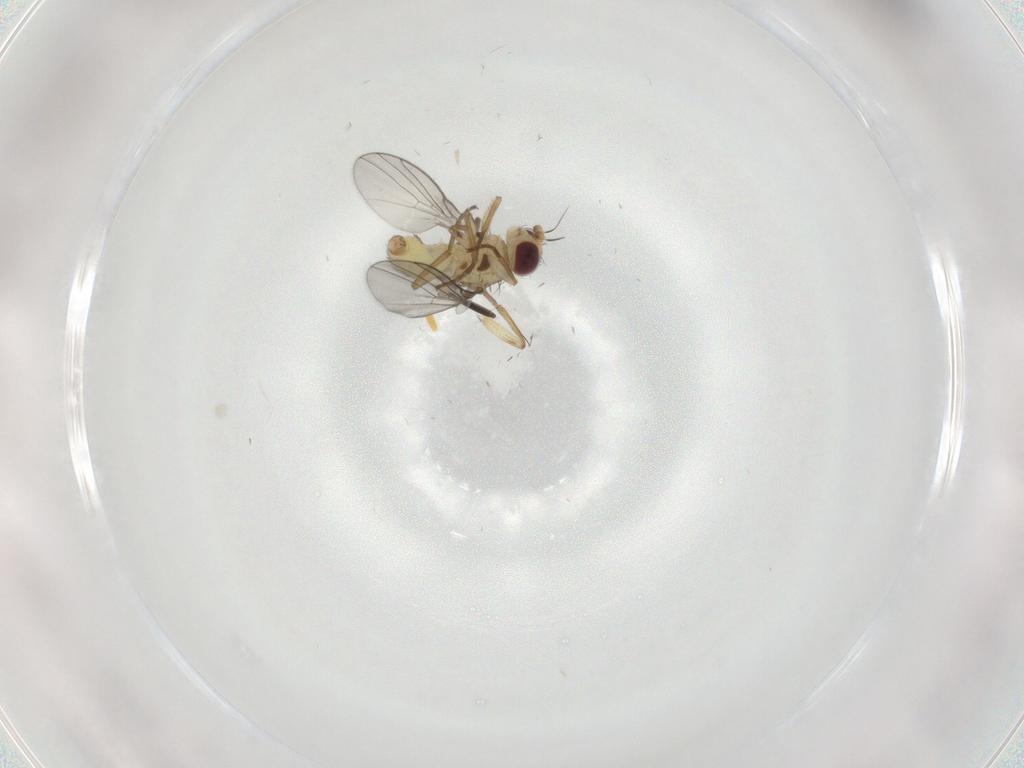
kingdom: Animalia
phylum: Arthropoda
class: Insecta
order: Diptera
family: Agromyzidae
